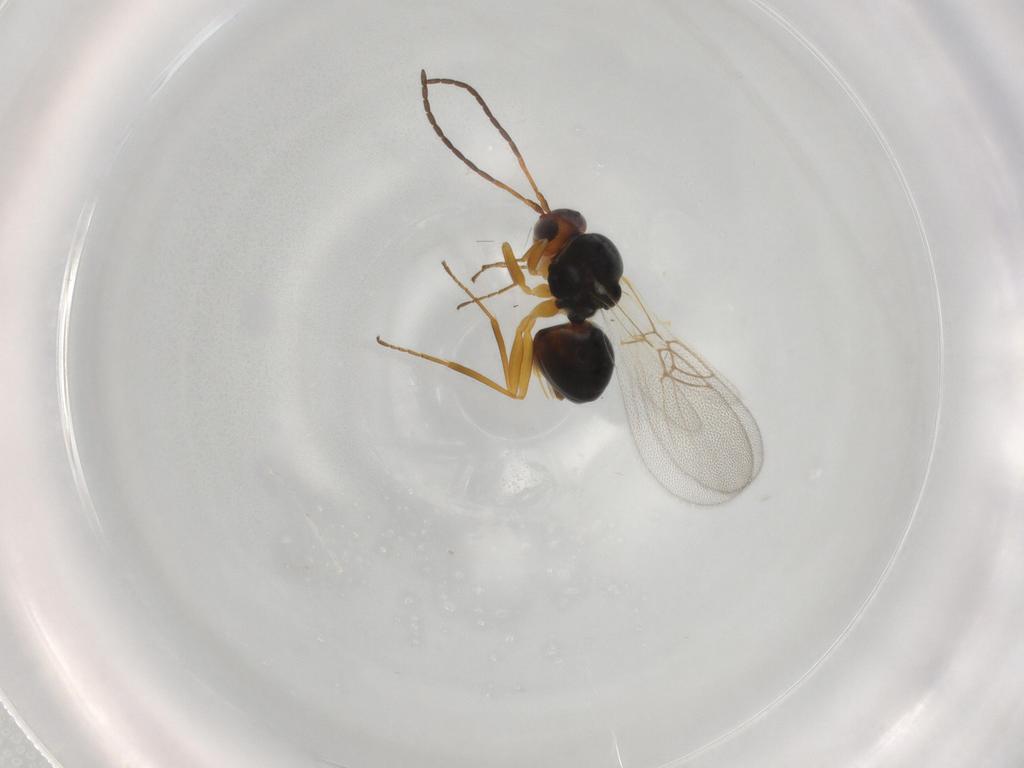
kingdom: Animalia
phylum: Arthropoda
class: Insecta
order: Hymenoptera
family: Figitidae
